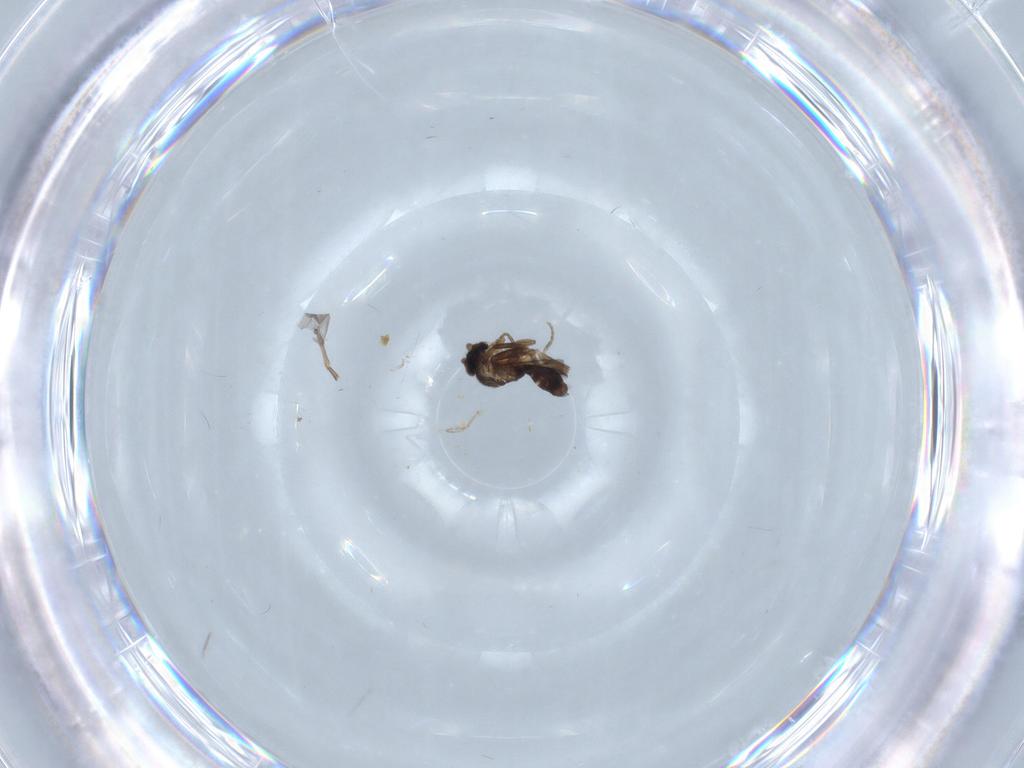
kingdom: Animalia
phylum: Arthropoda
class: Insecta
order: Diptera
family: Cecidomyiidae
